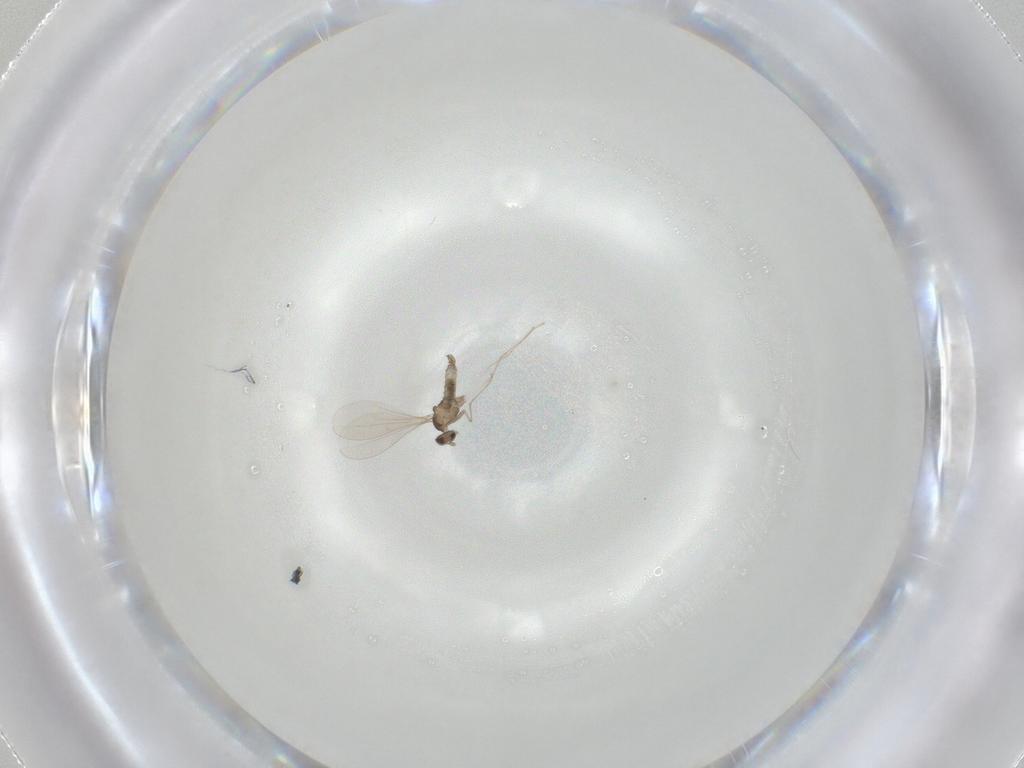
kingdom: Animalia
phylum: Arthropoda
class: Insecta
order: Diptera
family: Cecidomyiidae
